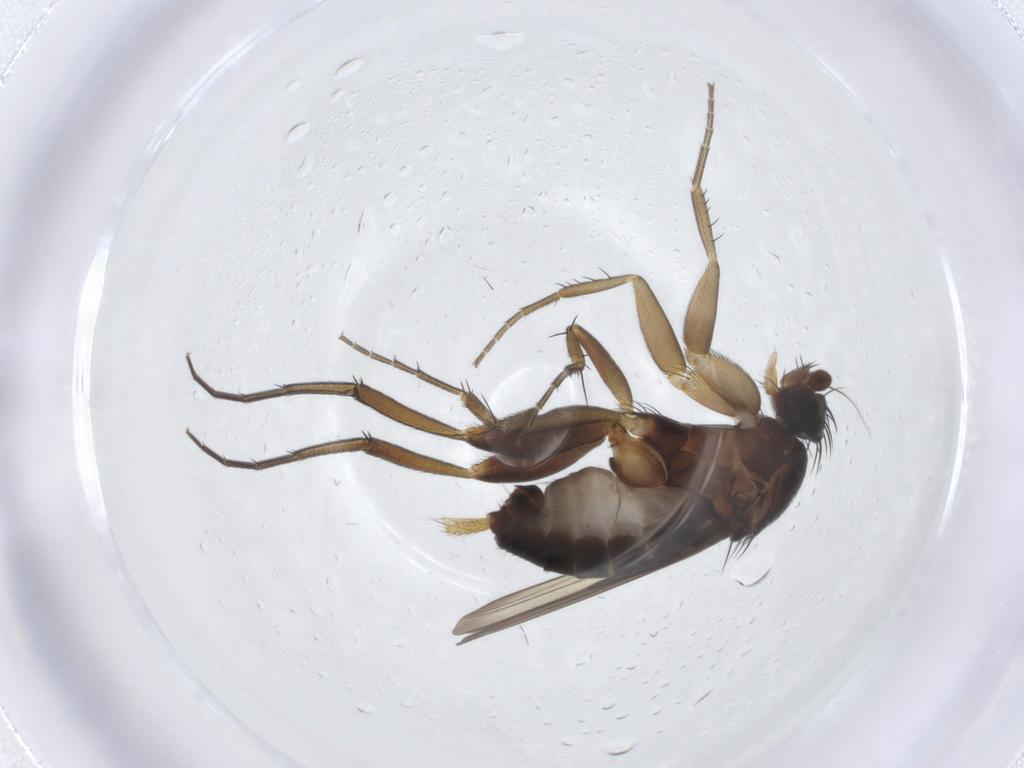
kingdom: Animalia
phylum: Arthropoda
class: Insecta
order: Diptera
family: Phoridae
